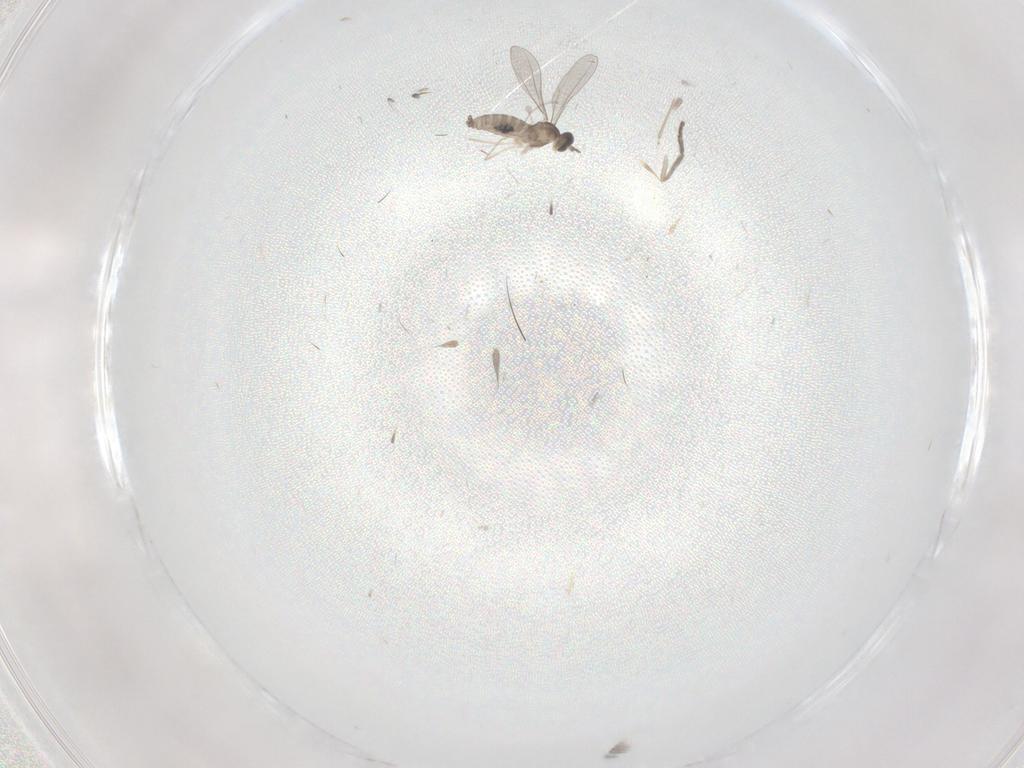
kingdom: Animalia
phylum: Arthropoda
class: Insecta
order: Diptera
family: Psychodidae
